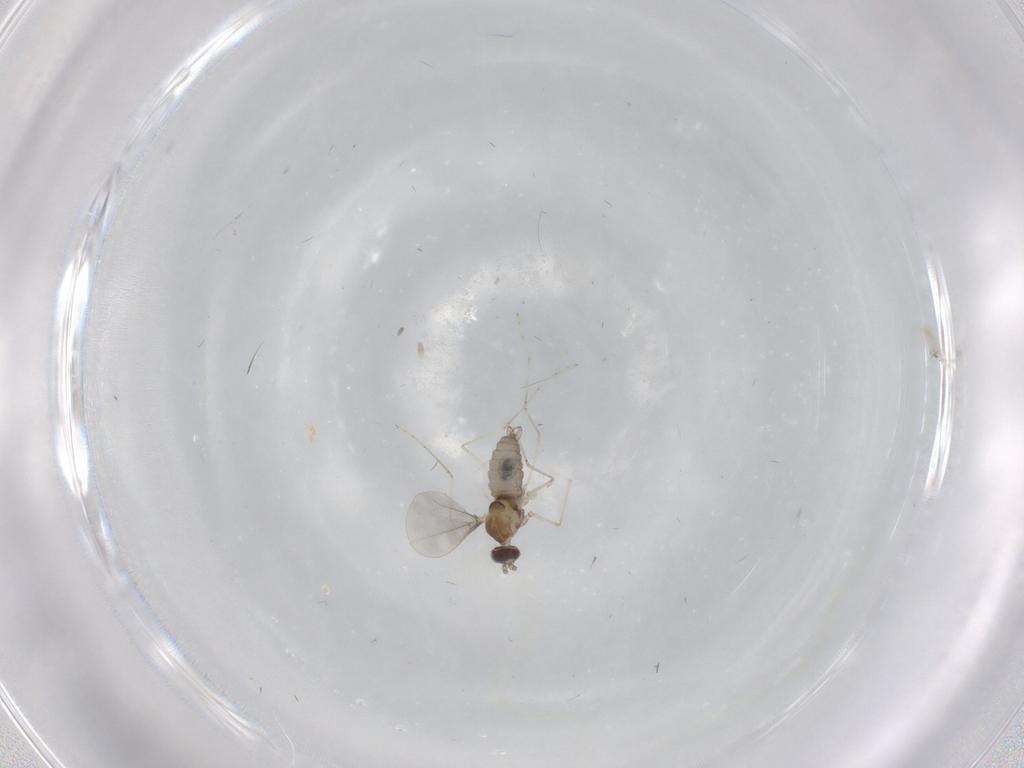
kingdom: Animalia
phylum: Arthropoda
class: Insecta
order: Diptera
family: Cecidomyiidae
